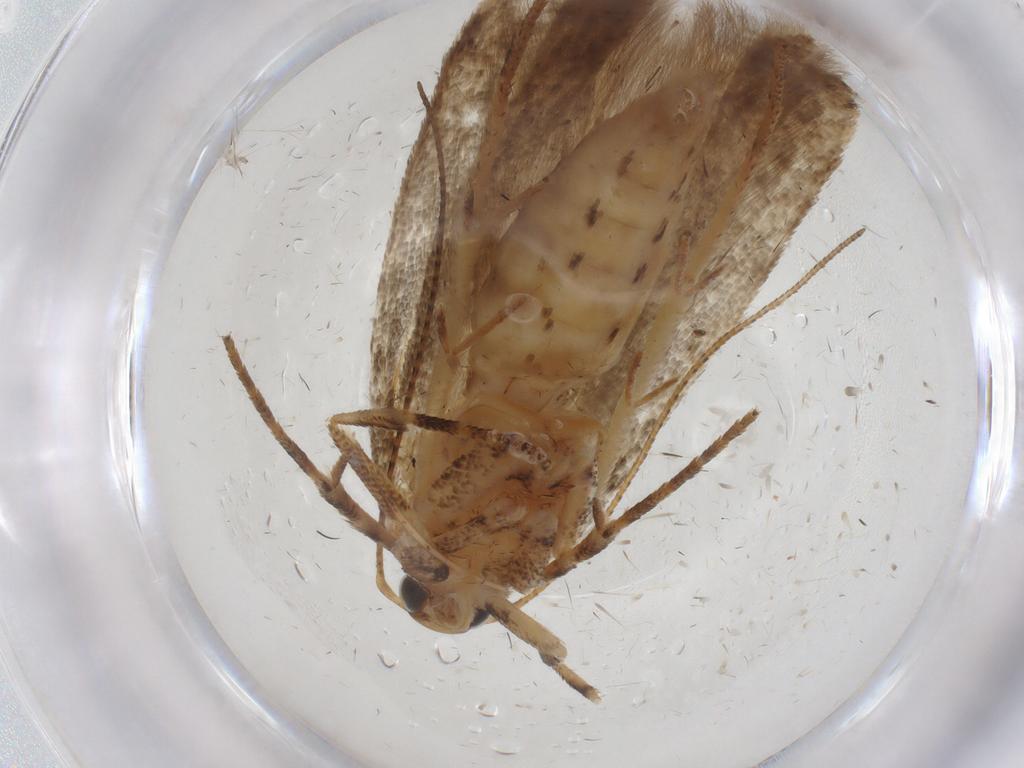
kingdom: Animalia
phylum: Arthropoda
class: Insecta
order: Lepidoptera
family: Gelechiidae
